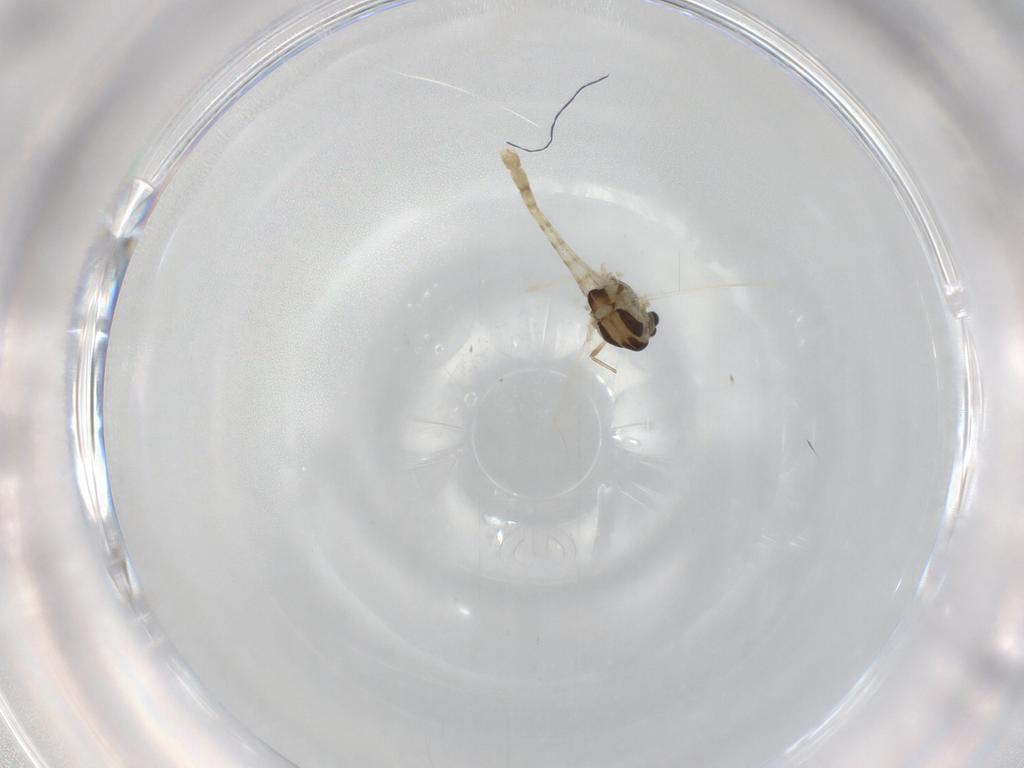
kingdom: Animalia
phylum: Arthropoda
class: Insecta
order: Diptera
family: Chironomidae
